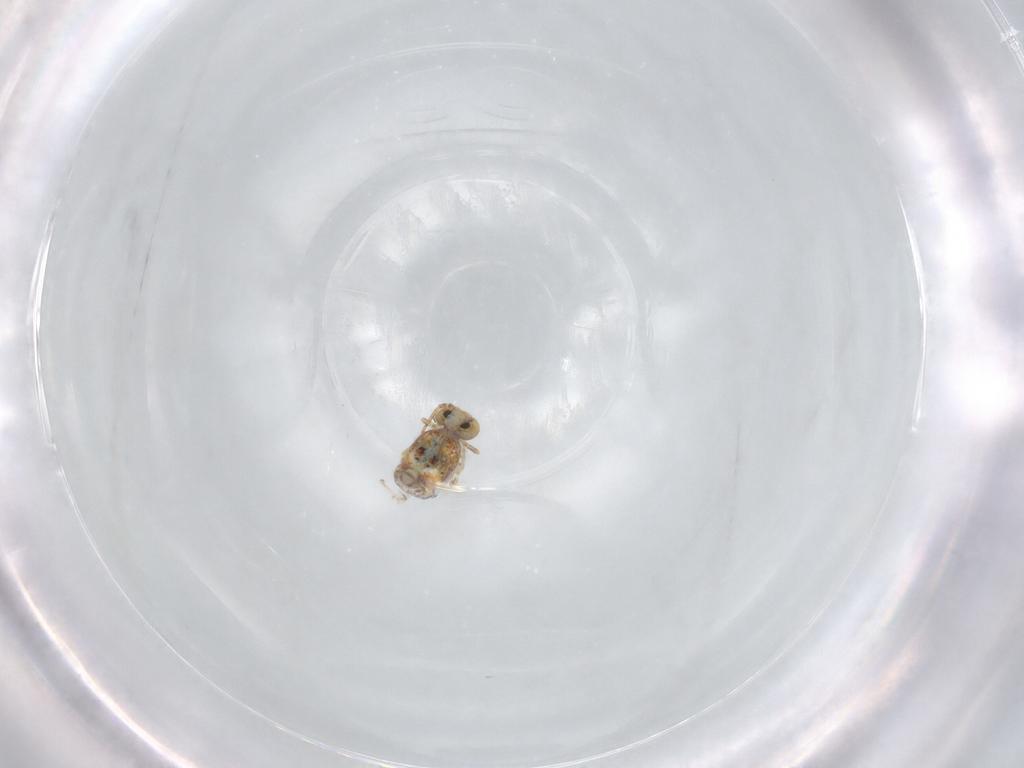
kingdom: Animalia
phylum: Arthropoda
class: Collembola
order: Symphypleona
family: Bourletiellidae
